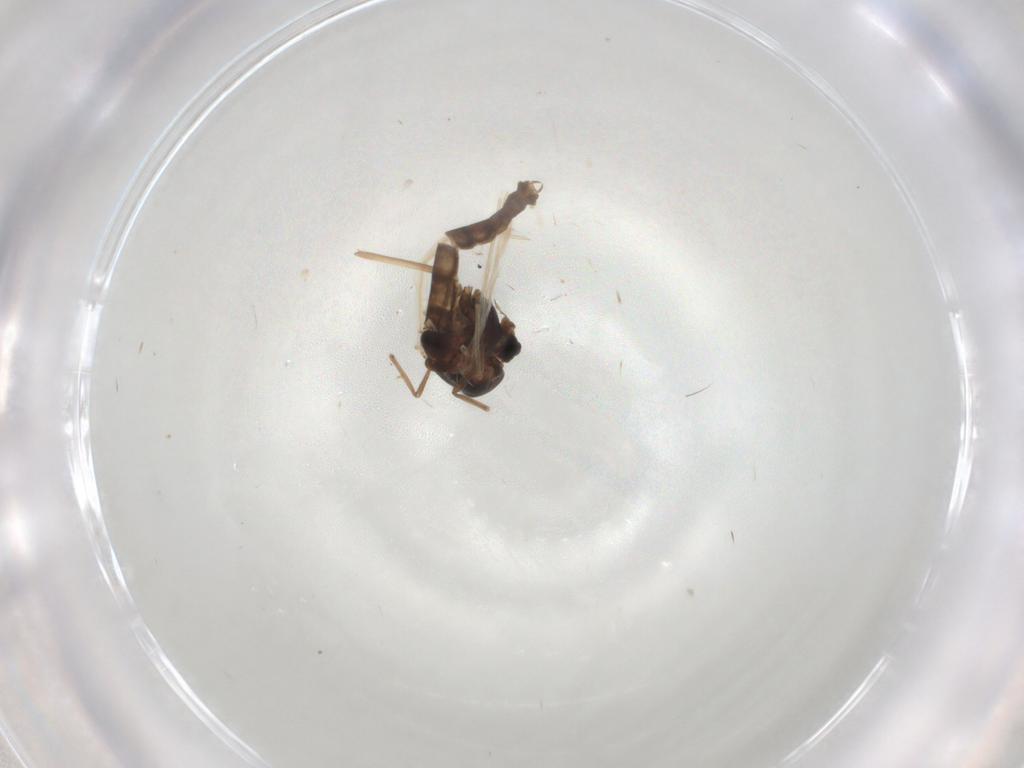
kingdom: Animalia
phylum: Arthropoda
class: Insecta
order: Diptera
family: Chironomidae
